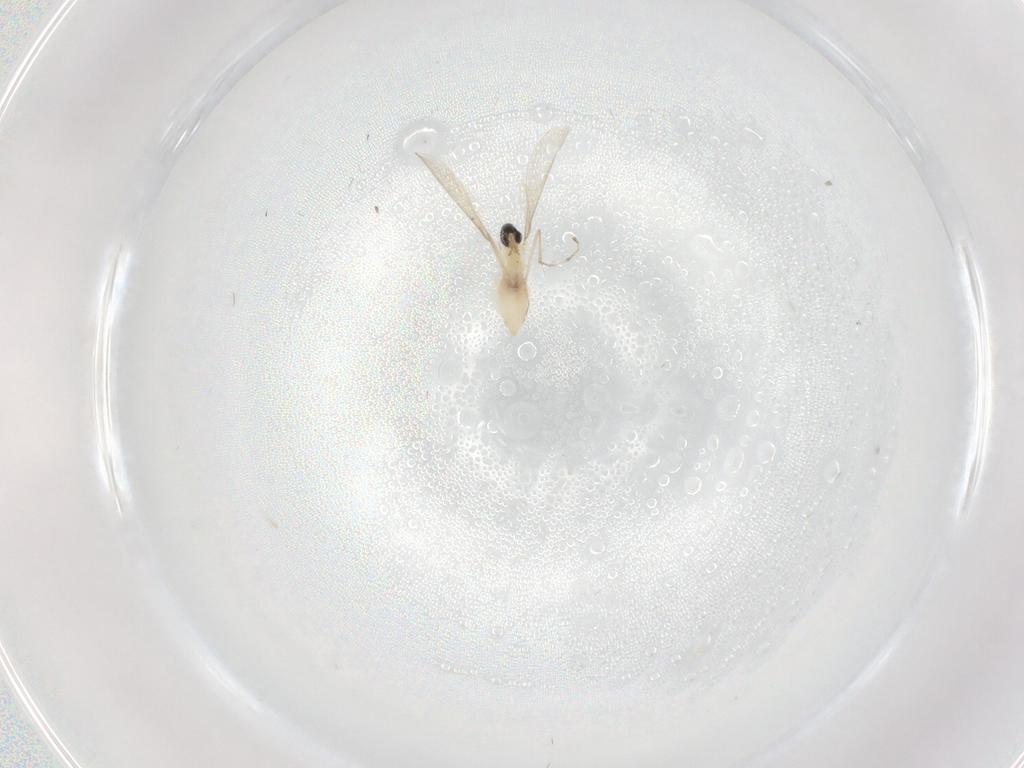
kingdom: Animalia
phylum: Arthropoda
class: Insecta
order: Diptera
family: Cecidomyiidae
